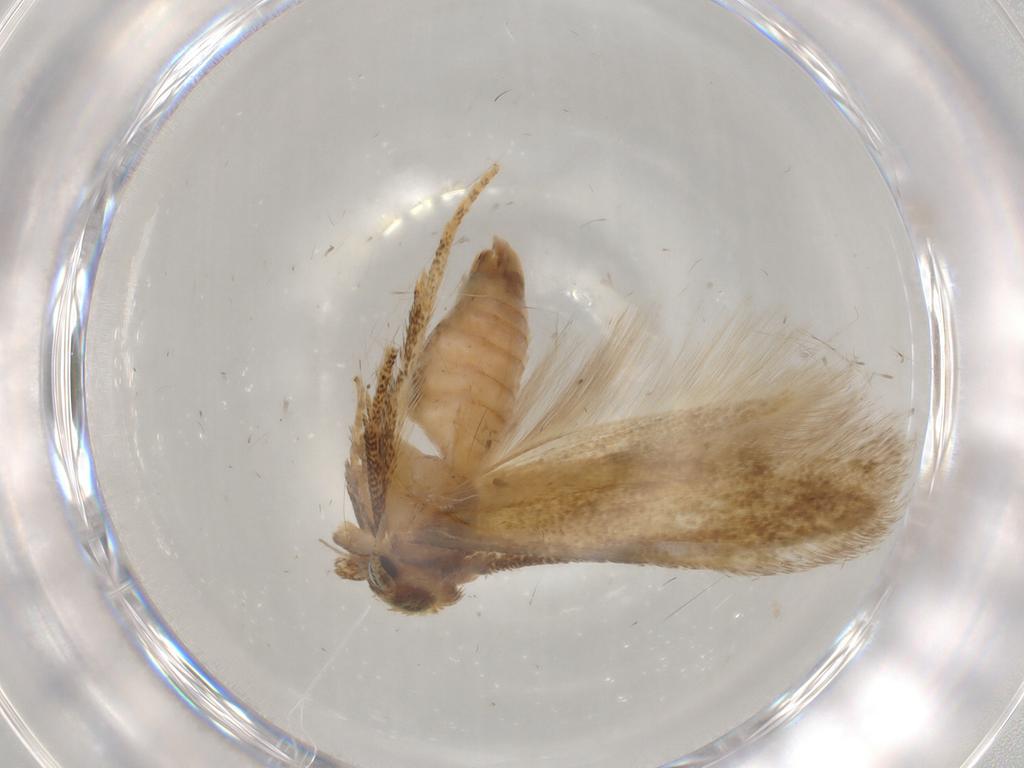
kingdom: Animalia
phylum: Arthropoda
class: Insecta
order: Lepidoptera
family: Blastobasidae
